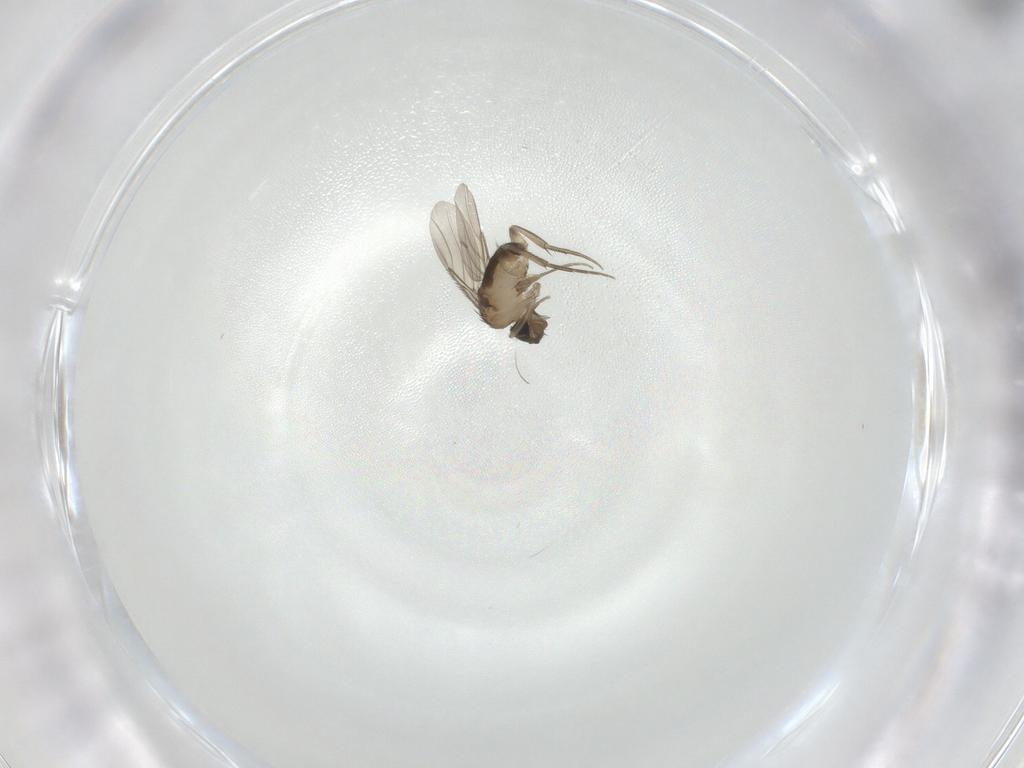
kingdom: Animalia
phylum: Arthropoda
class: Insecta
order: Diptera
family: Phoridae
